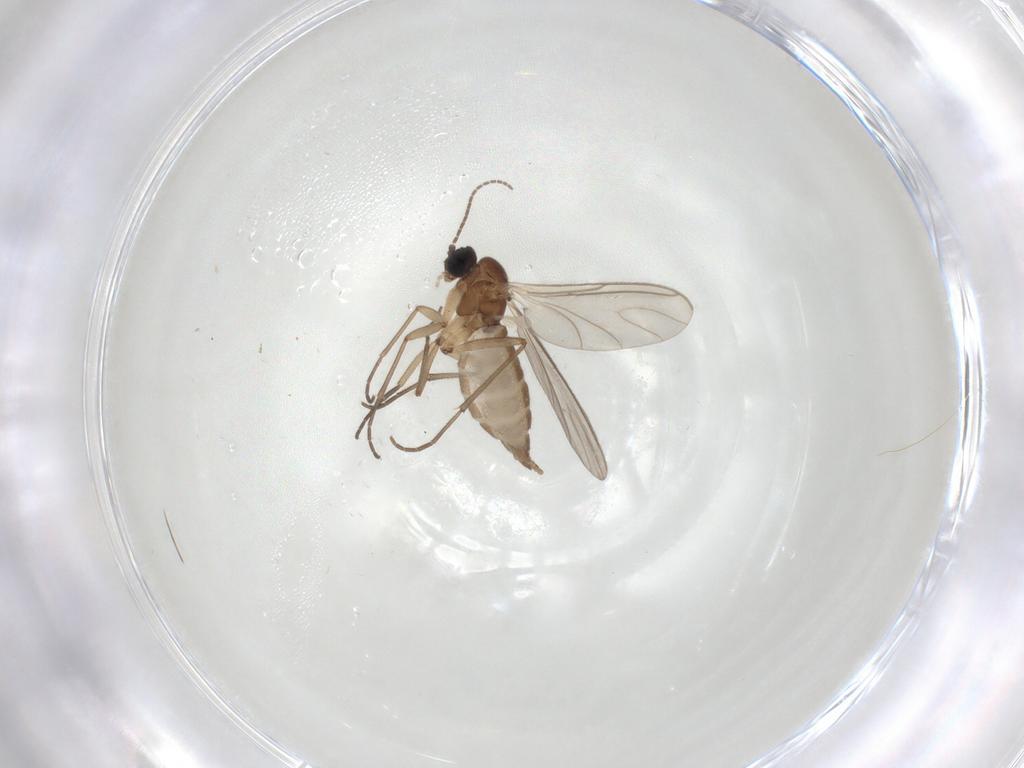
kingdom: Animalia
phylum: Arthropoda
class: Insecta
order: Diptera
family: Sciaridae
